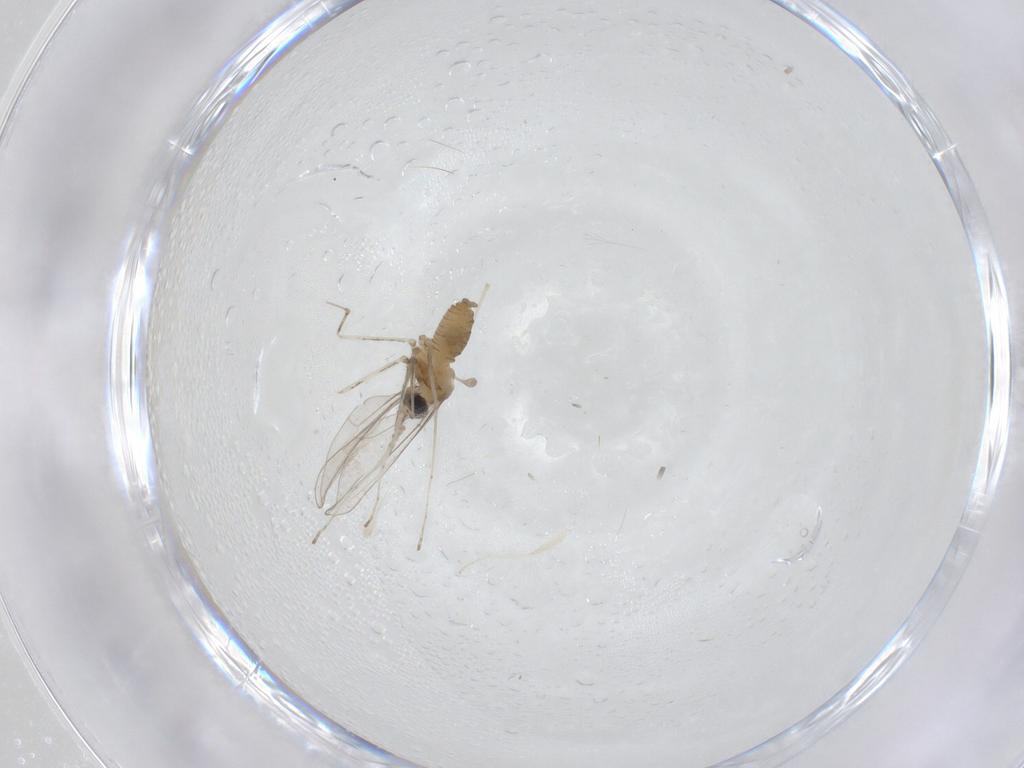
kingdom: Animalia
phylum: Arthropoda
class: Insecta
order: Diptera
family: Cecidomyiidae
